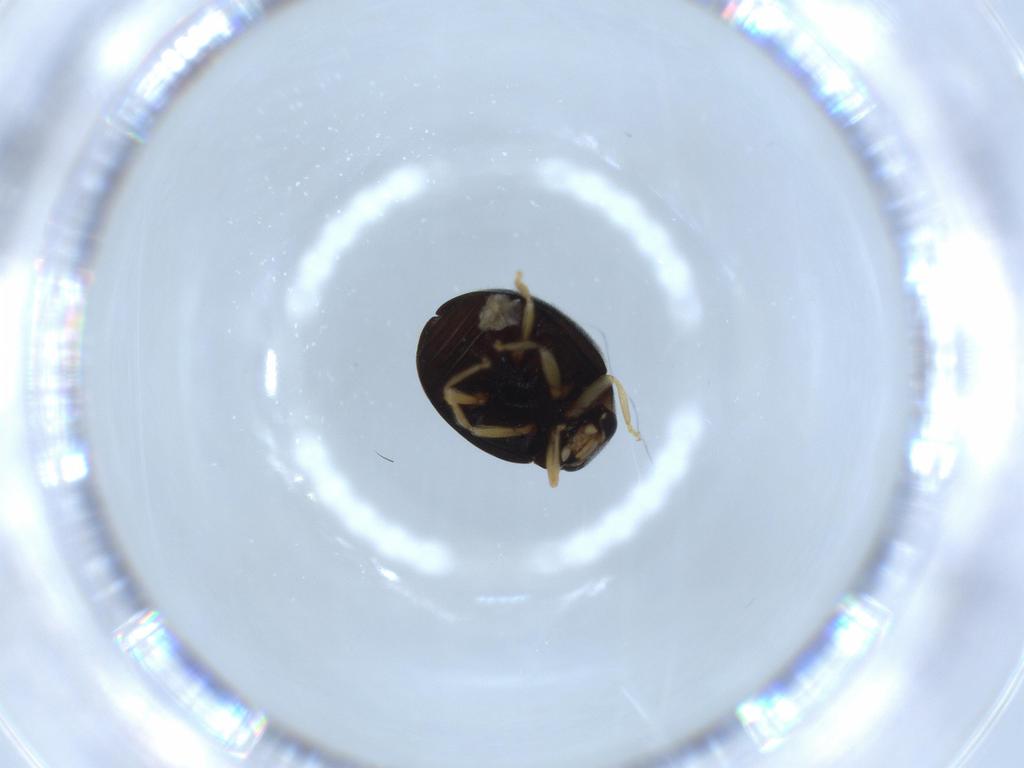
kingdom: Animalia
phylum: Arthropoda
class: Insecta
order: Coleoptera
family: Coccinellidae
